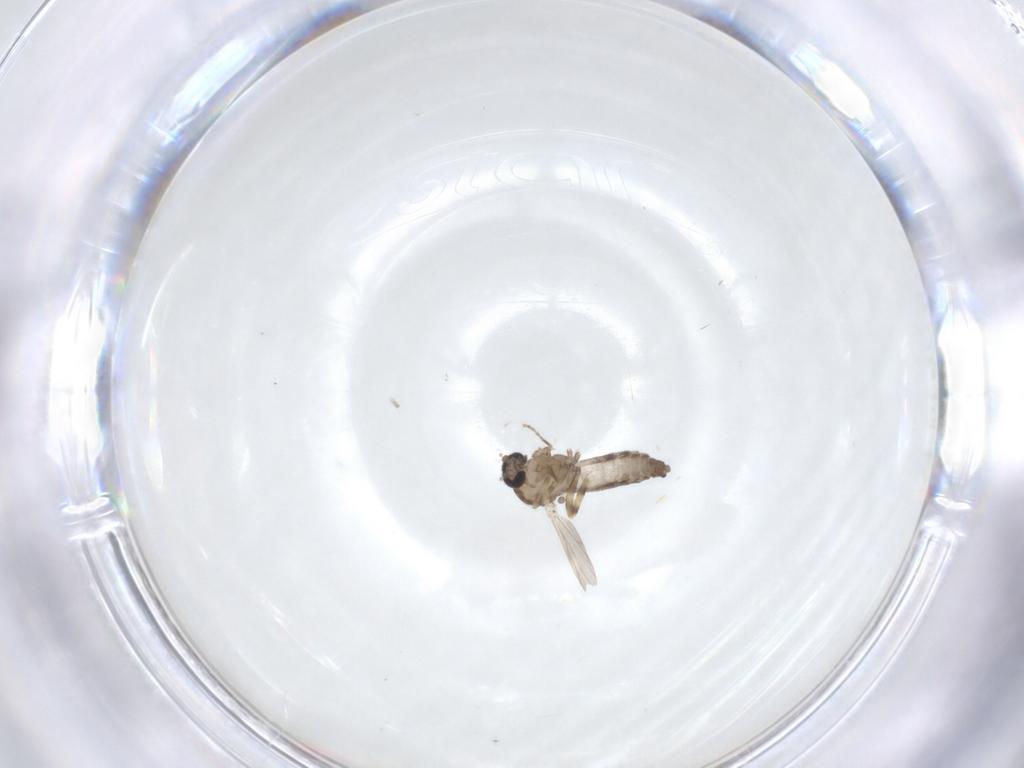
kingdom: Animalia
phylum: Arthropoda
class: Insecta
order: Diptera
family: Ceratopogonidae
